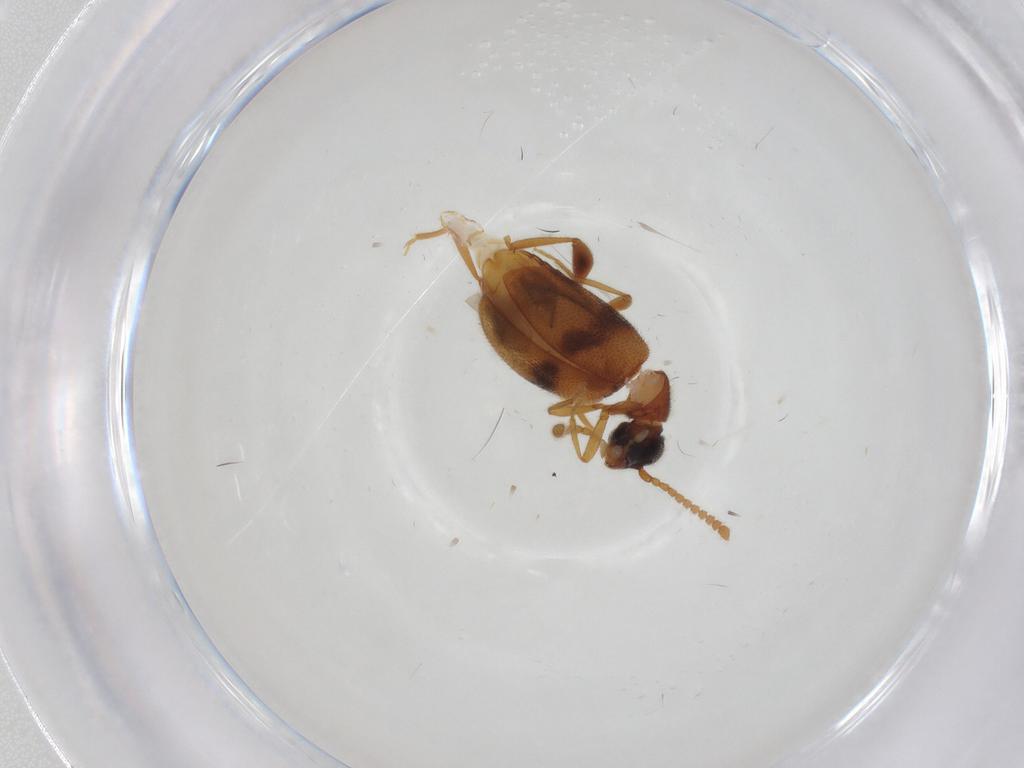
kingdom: Animalia
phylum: Arthropoda
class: Insecta
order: Coleoptera
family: Aderidae
